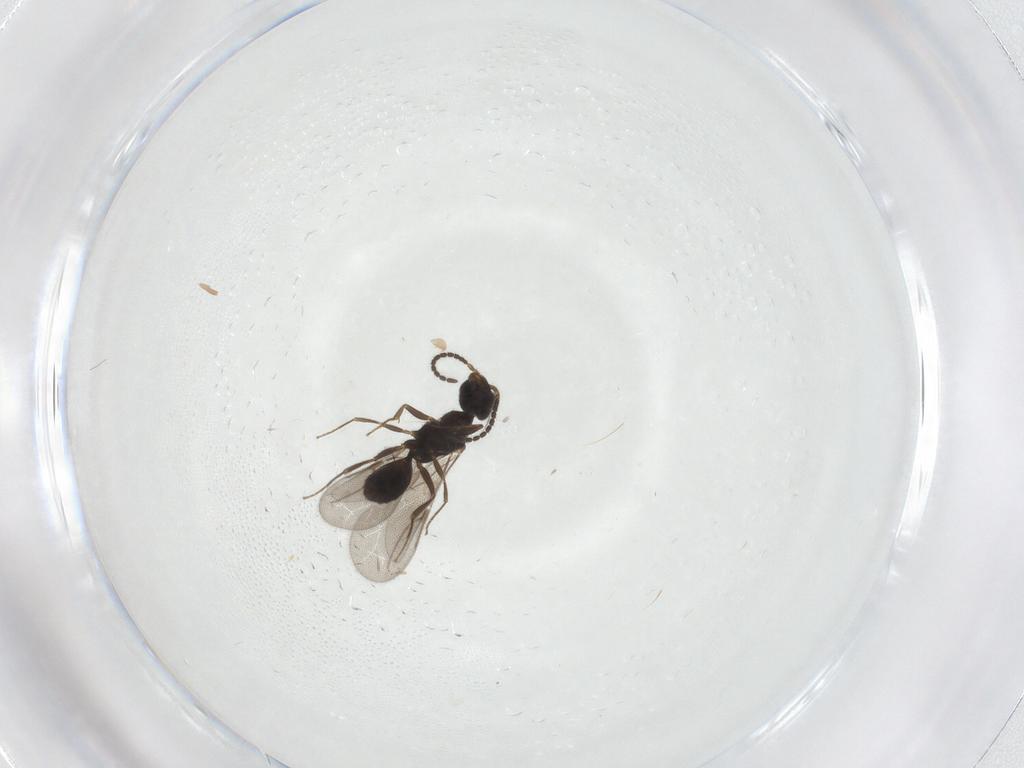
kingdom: Animalia
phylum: Arthropoda
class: Insecta
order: Hymenoptera
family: Bethylidae
